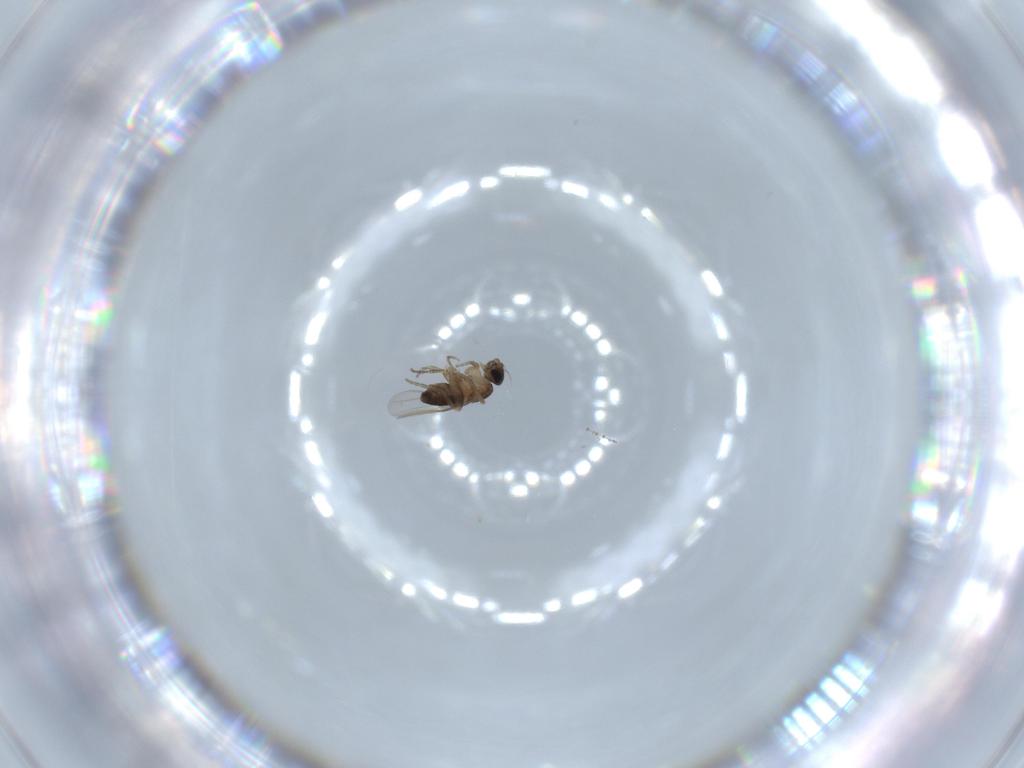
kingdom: Animalia
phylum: Arthropoda
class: Insecta
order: Diptera
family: Phoridae
